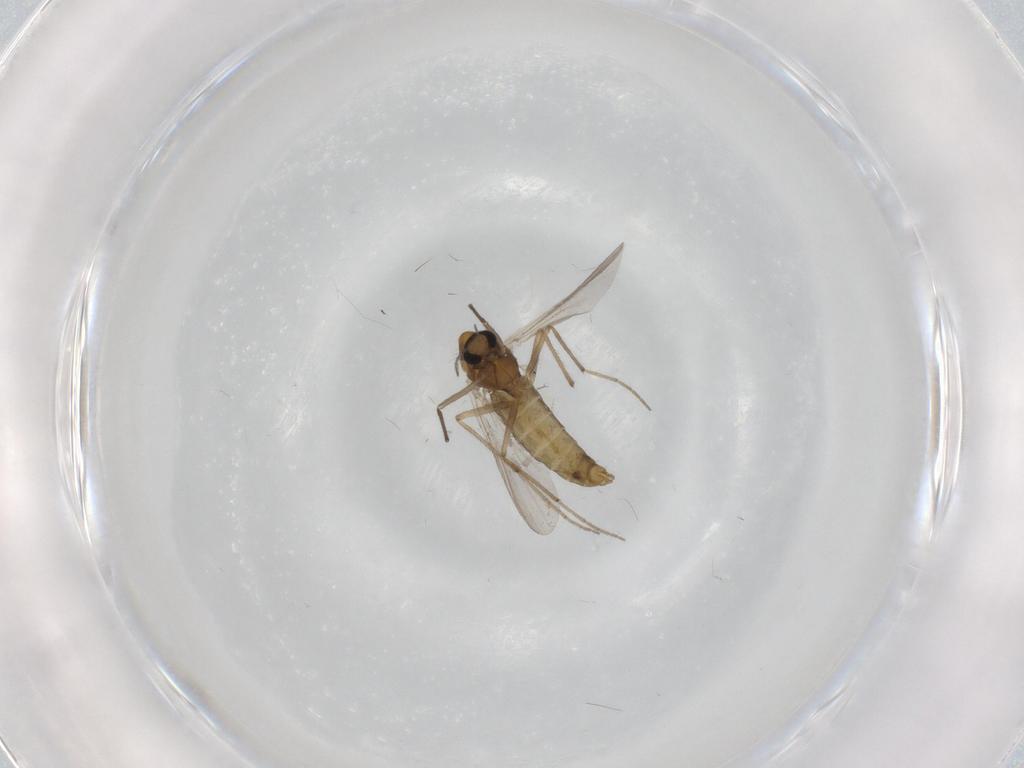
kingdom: Animalia
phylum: Arthropoda
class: Insecta
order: Diptera
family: Chironomidae
